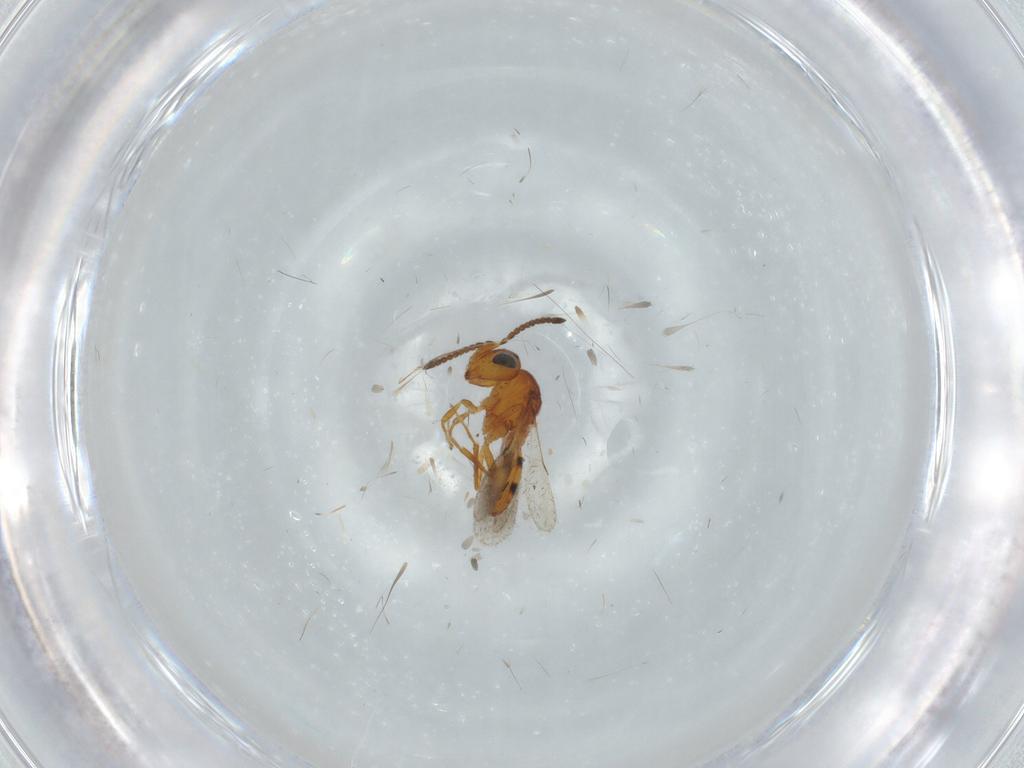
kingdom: Animalia
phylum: Arthropoda
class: Insecta
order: Hymenoptera
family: Scelionidae
